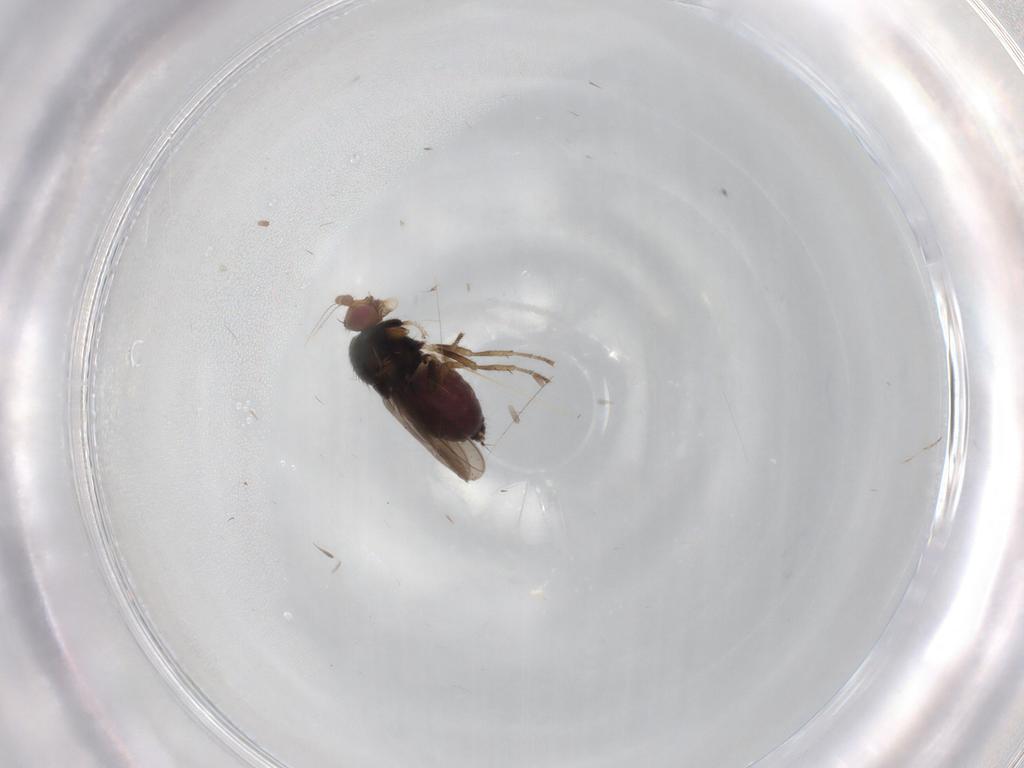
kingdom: Animalia
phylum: Arthropoda
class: Insecta
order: Diptera
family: Sphaeroceridae
